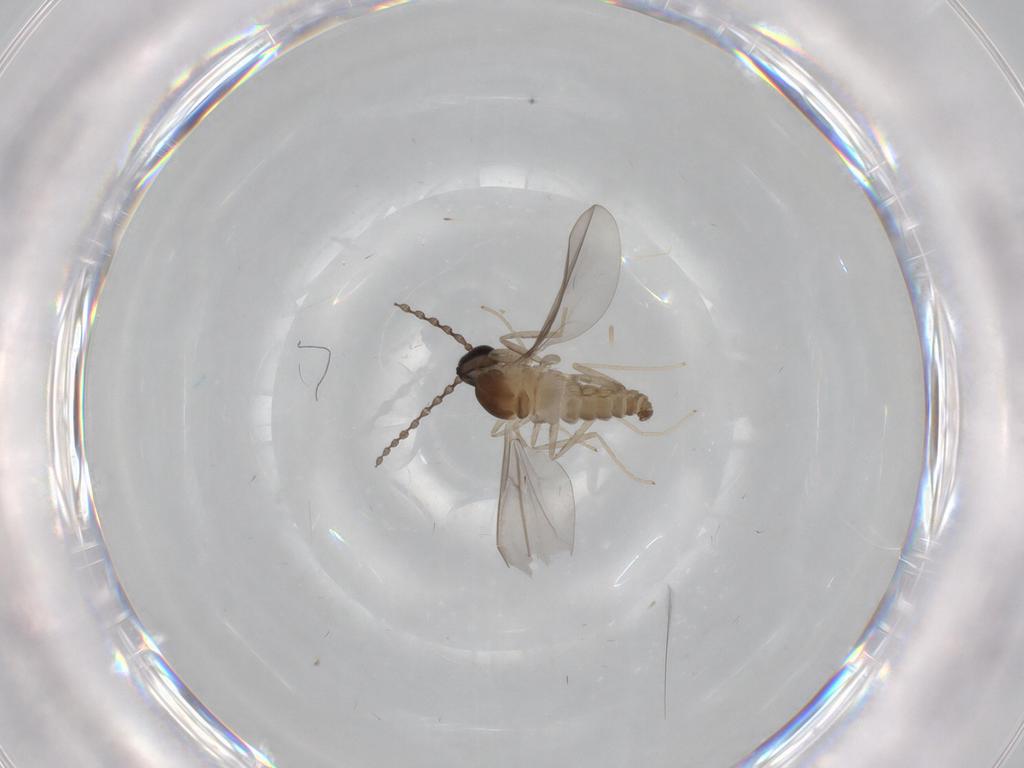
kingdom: Animalia
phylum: Arthropoda
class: Insecta
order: Diptera
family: Cecidomyiidae
